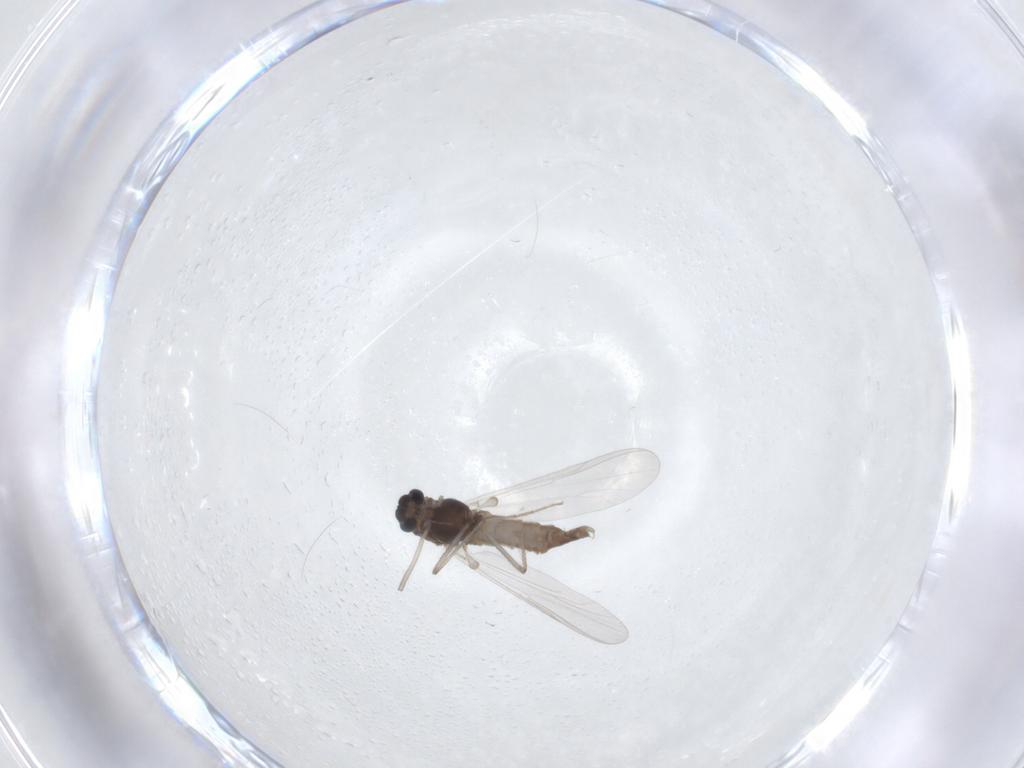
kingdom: Animalia
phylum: Arthropoda
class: Insecta
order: Diptera
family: Chironomidae
